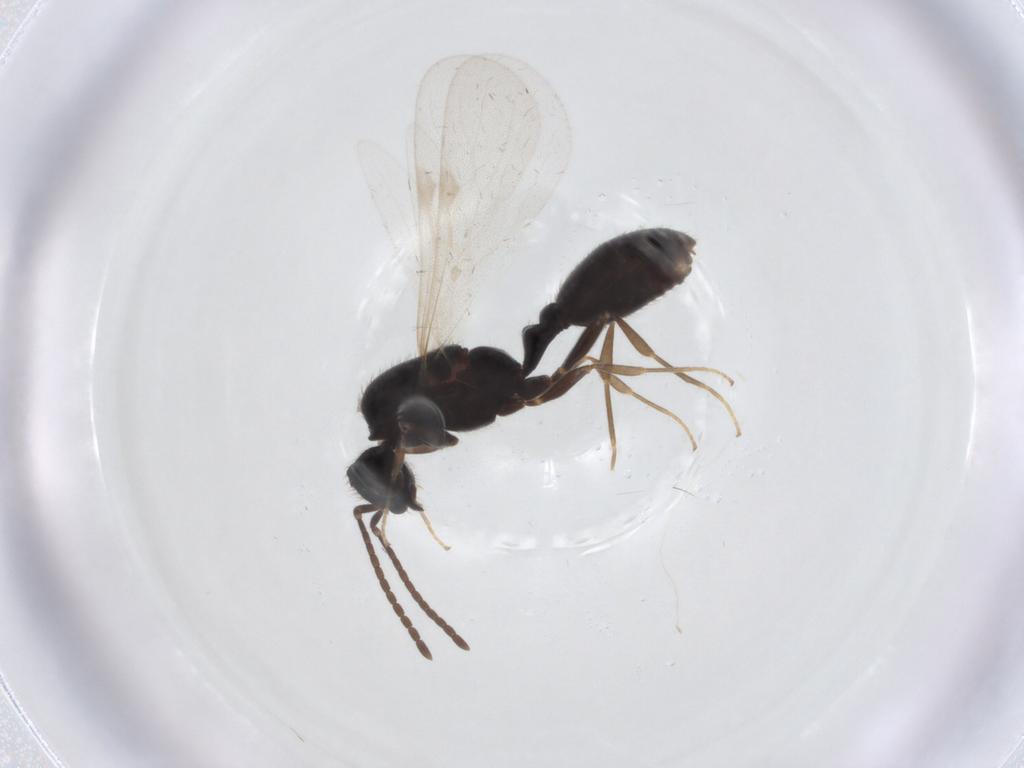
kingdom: Animalia
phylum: Arthropoda
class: Insecta
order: Hymenoptera
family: Formicidae
